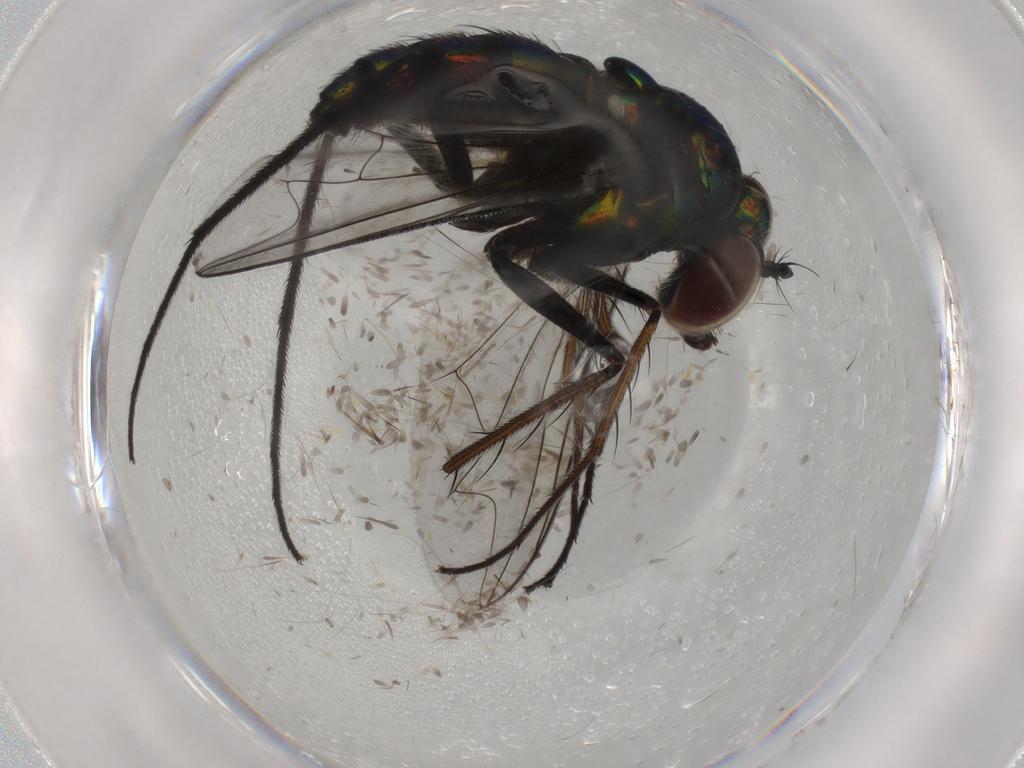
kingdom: Animalia
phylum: Arthropoda
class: Insecta
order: Diptera
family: Dolichopodidae
